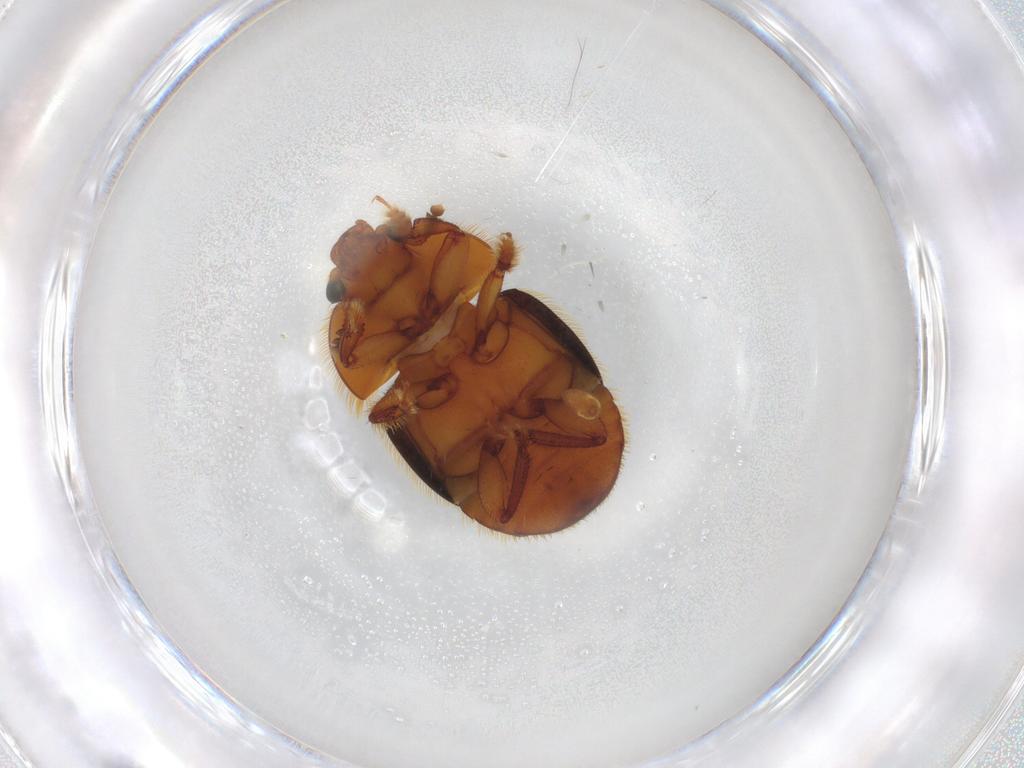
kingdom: Animalia
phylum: Arthropoda
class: Insecta
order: Coleoptera
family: Nitidulidae
